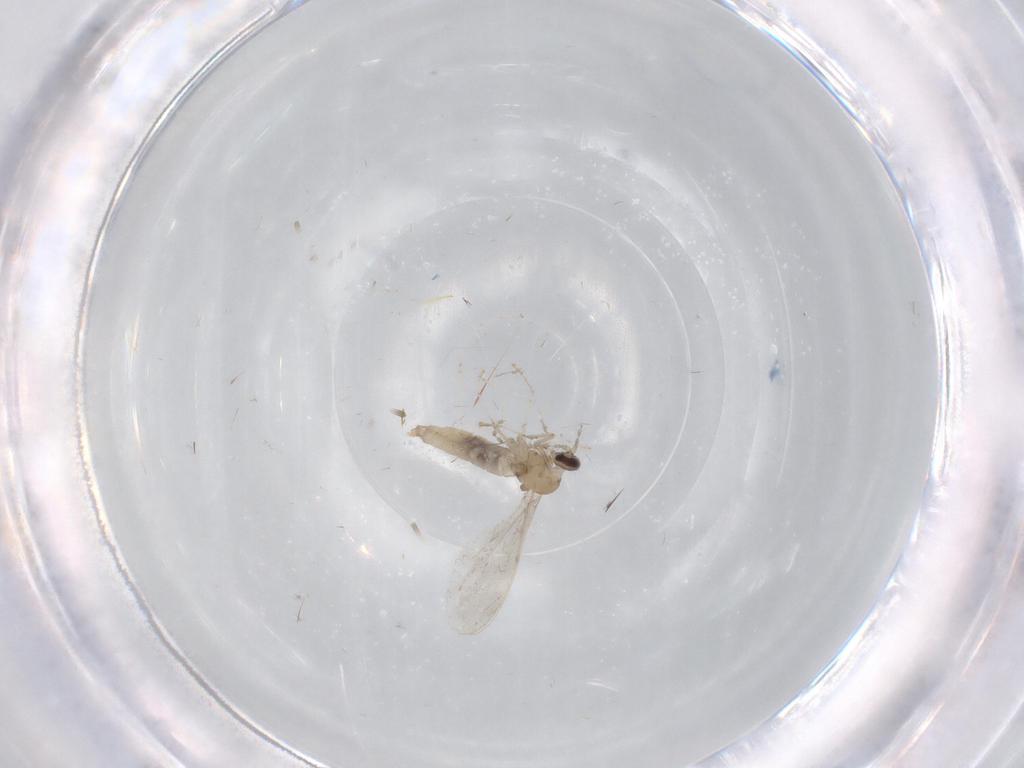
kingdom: Animalia
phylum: Arthropoda
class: Insecta
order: Diptera
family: Cecidomyiidae
